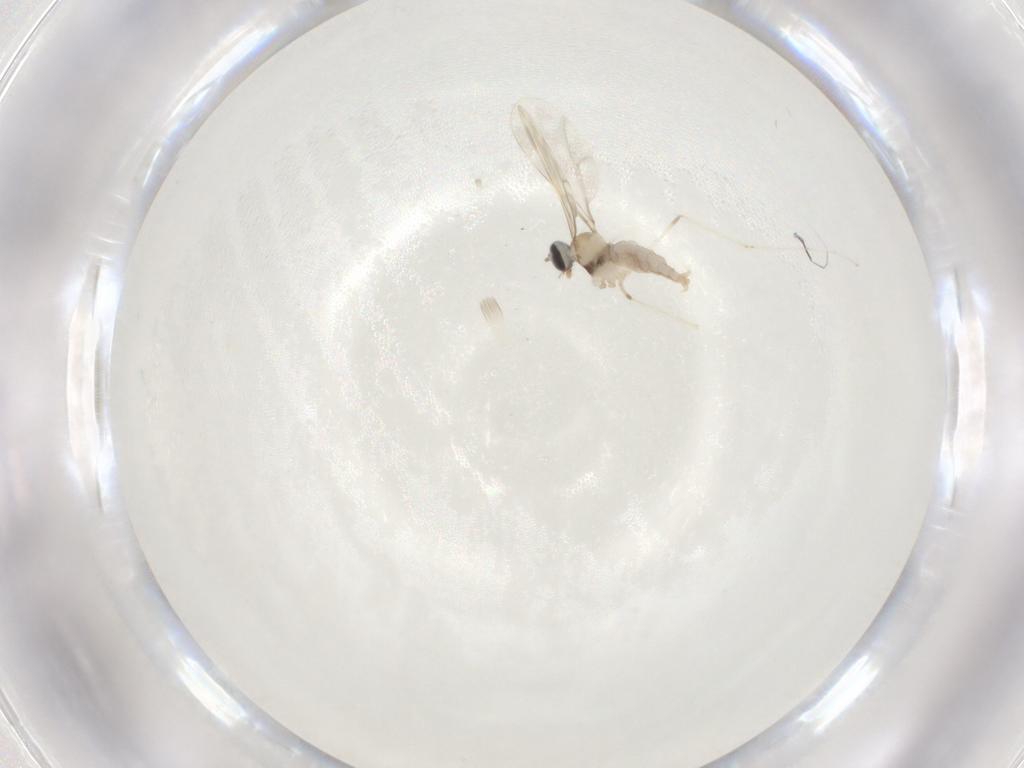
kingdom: Animalia
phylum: Arthropoda
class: Insecta
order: Diptera
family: Cecidomyiidae
